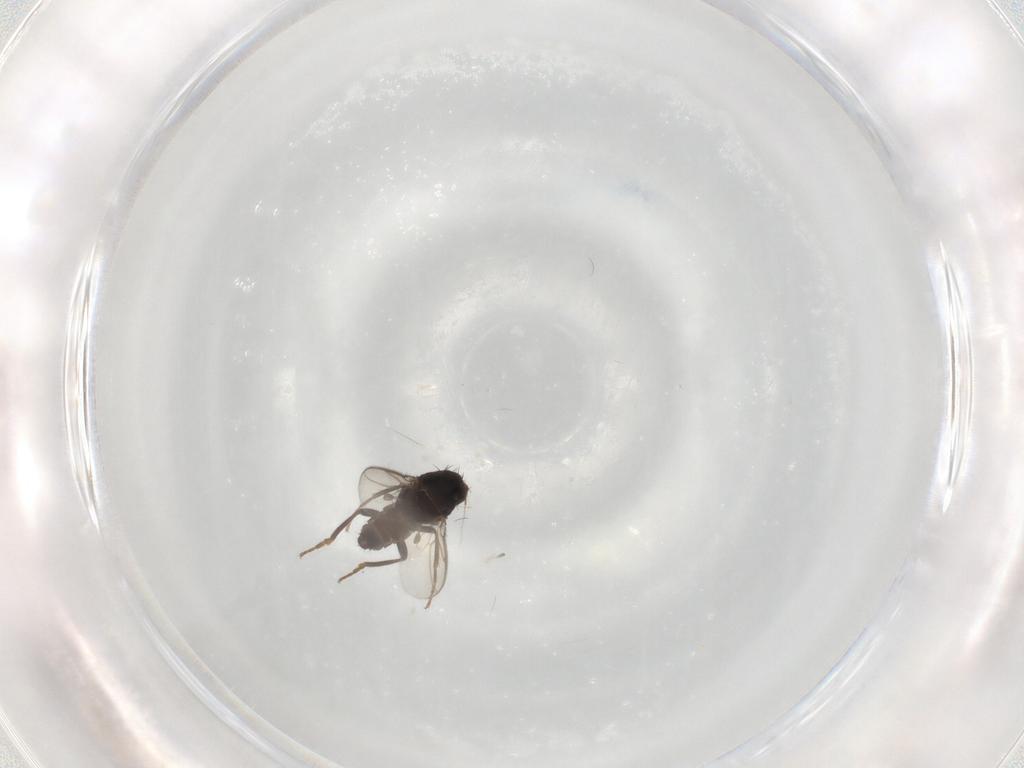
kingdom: Animalia
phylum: Arthropoda
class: Insecta
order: Diptera
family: Sphaeroceridae
